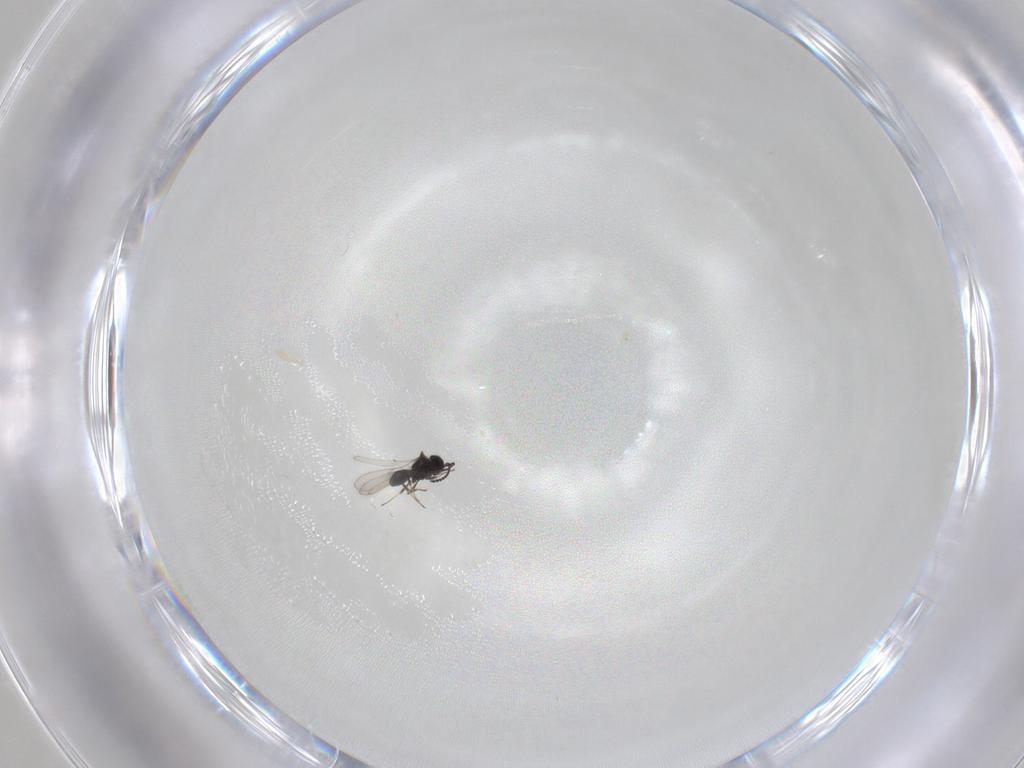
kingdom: Animalia
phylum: Arthropoda
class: Insecta
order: Hymenoptera
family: Scelionidae
